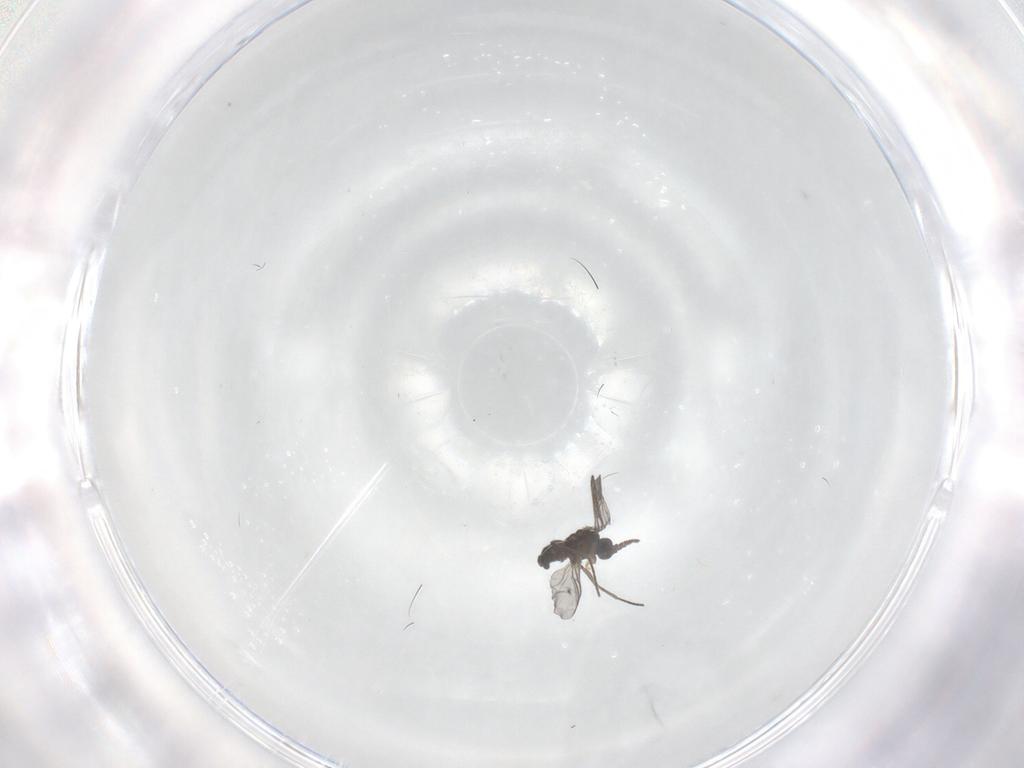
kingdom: Animalia
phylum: Arthropoda
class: Insecta
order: Diptera
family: Sciaridae
